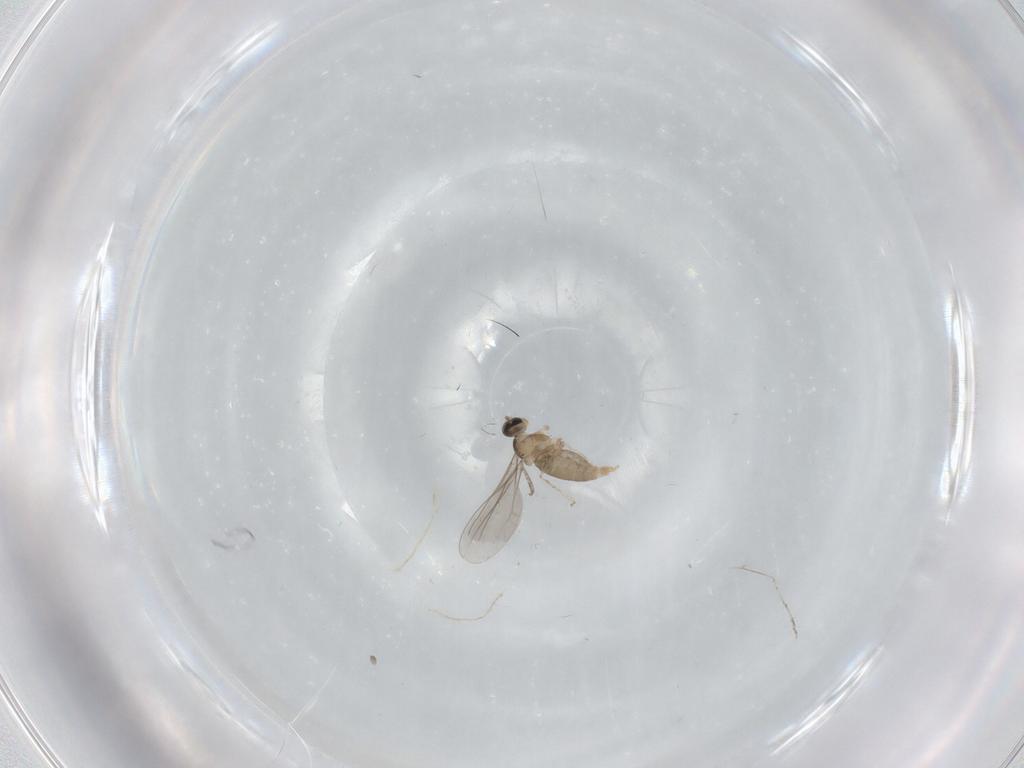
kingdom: Animalia
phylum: Arthropoda
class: Insecta
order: Diptera
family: Cecidomyiidae
